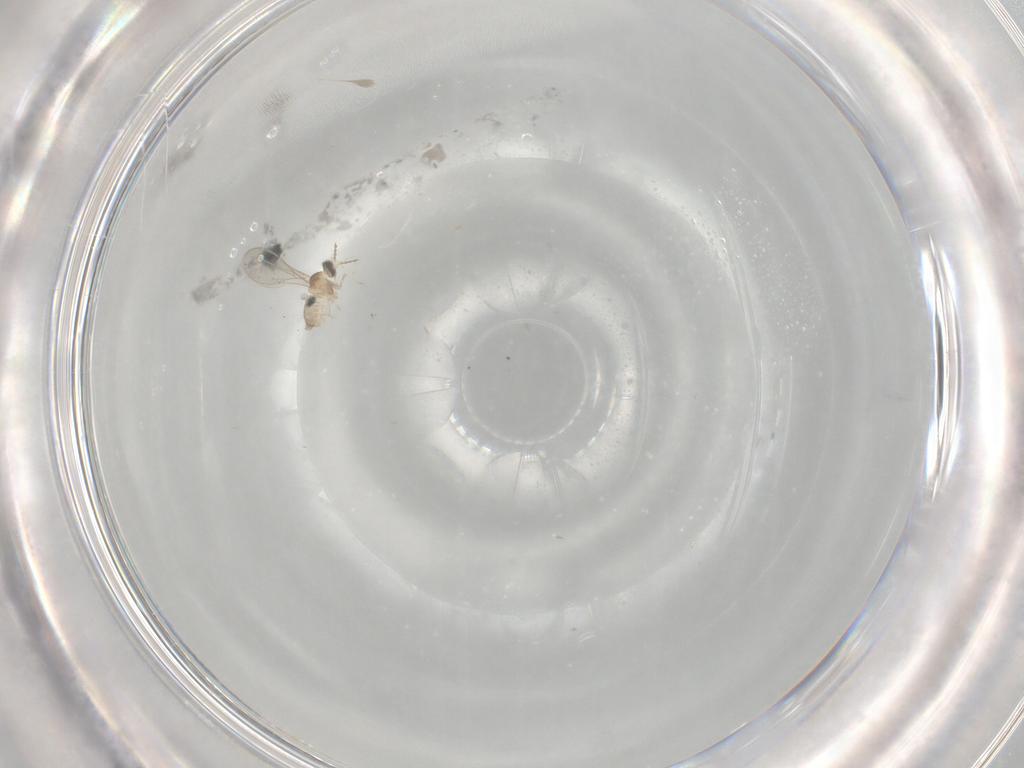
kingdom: Animalia
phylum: Arthropoda
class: Insecta
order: Diptera
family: Cecidomyiidae
